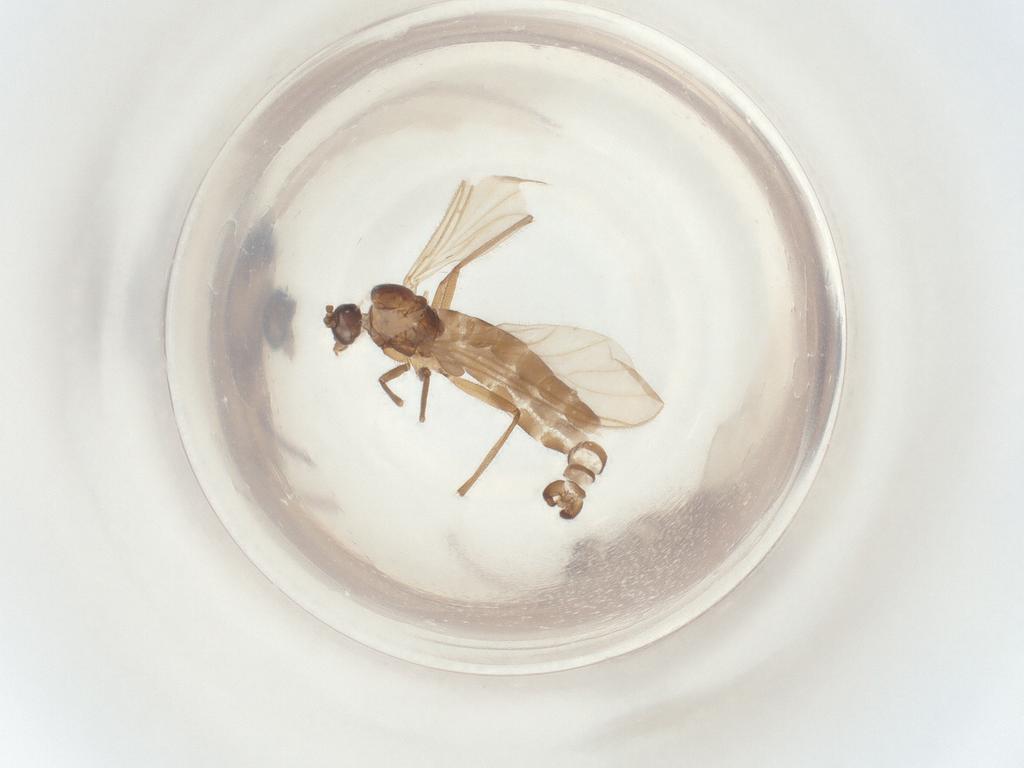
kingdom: Animalia
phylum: Arthropoda
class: Insecta
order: Diptera
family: Sciaridae
